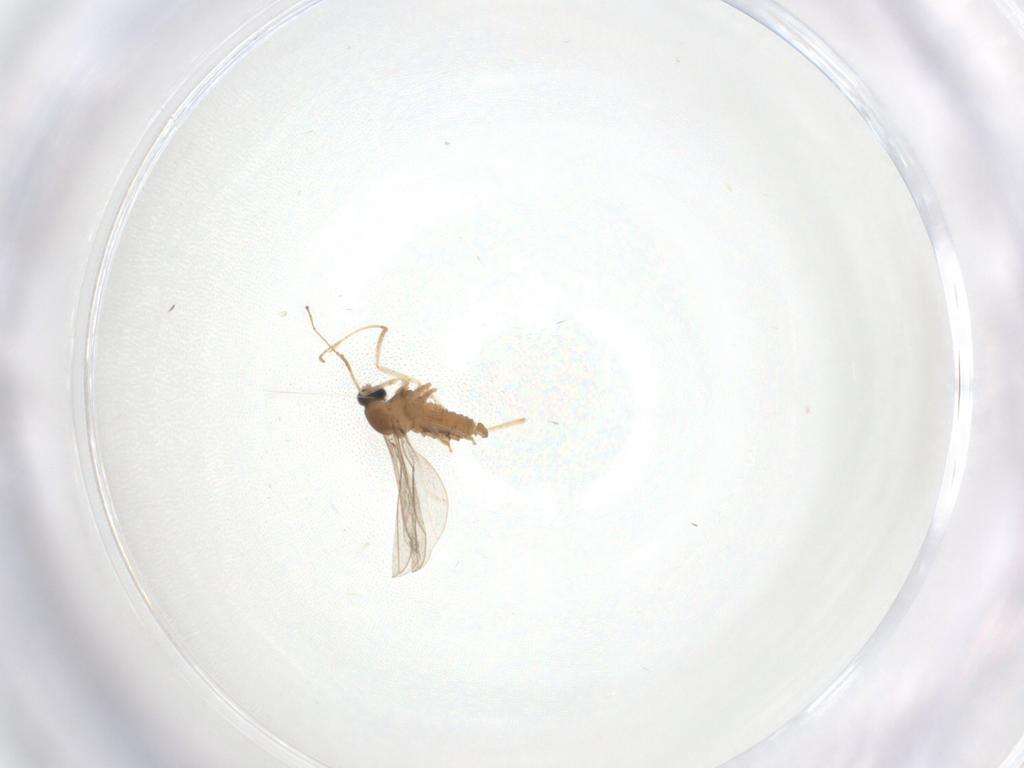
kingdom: Animalia
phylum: Arthropoda
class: Insecta
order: Diptera
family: Cecidomyiidae
